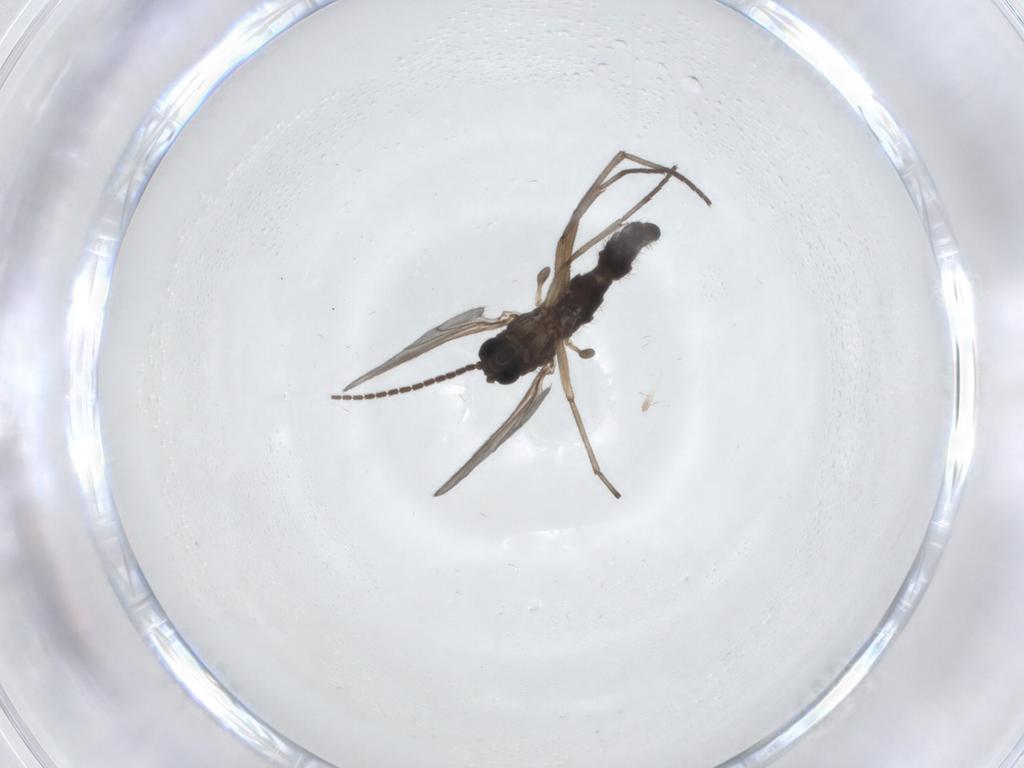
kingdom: Animalia
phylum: Arthropoda
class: Insecta
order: Diptera
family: Sciaridae
